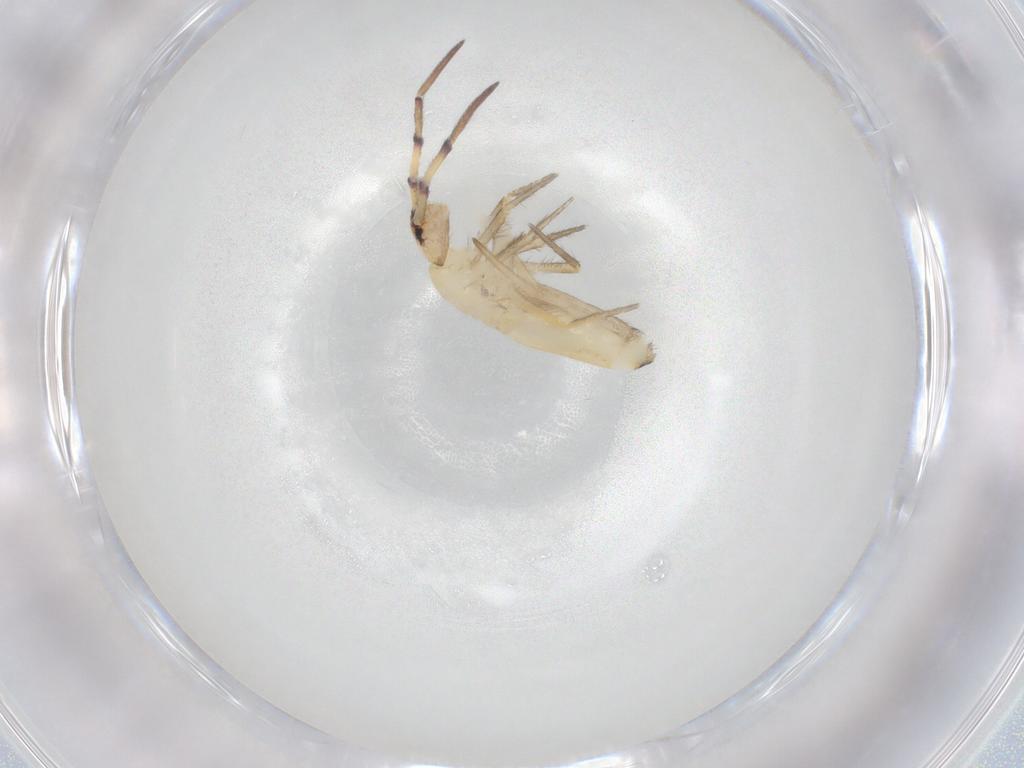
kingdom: Animalia
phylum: Arthropoda
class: Collembola
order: Entomobryomorpha
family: Entomobryidae
